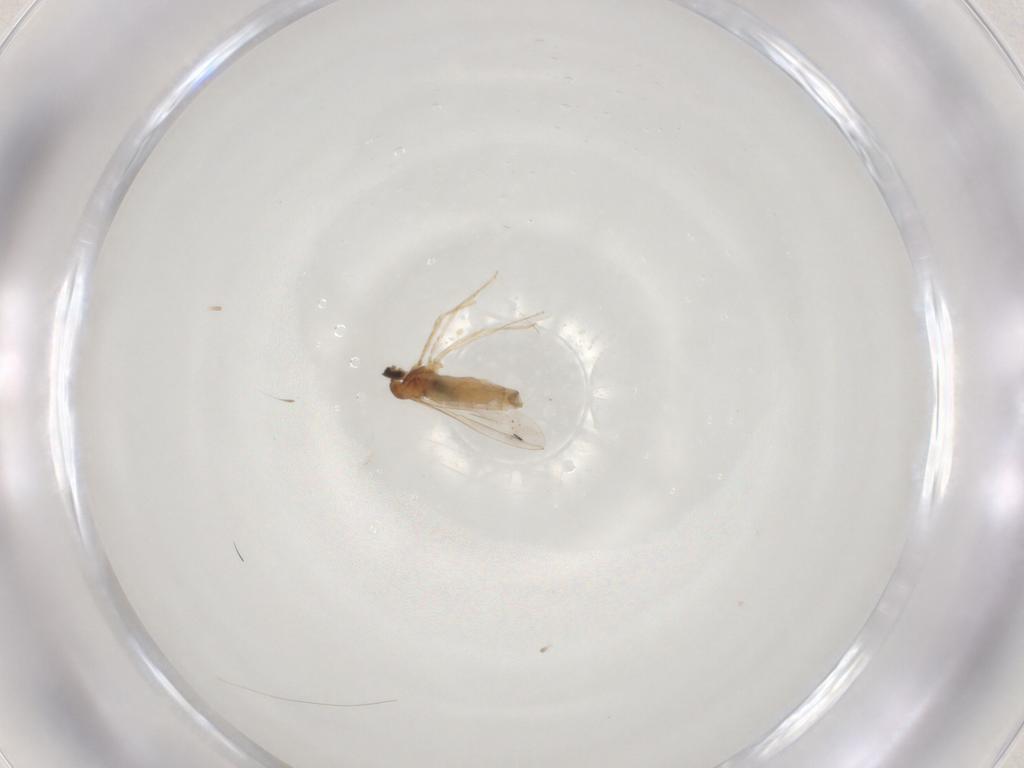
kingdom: Animalia
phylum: Arthropoda
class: Insecta
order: Diptera
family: Cecidomyiidae
